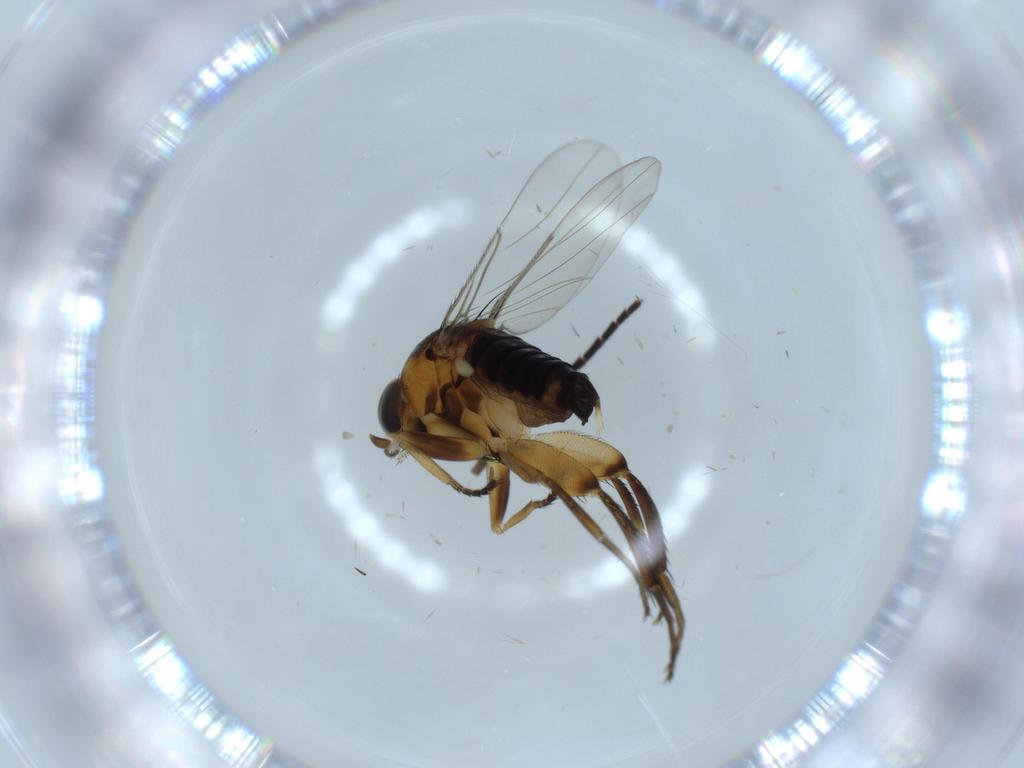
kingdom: Animalia
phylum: Arthropoda
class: Insecta
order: Diptera
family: Phoridae
